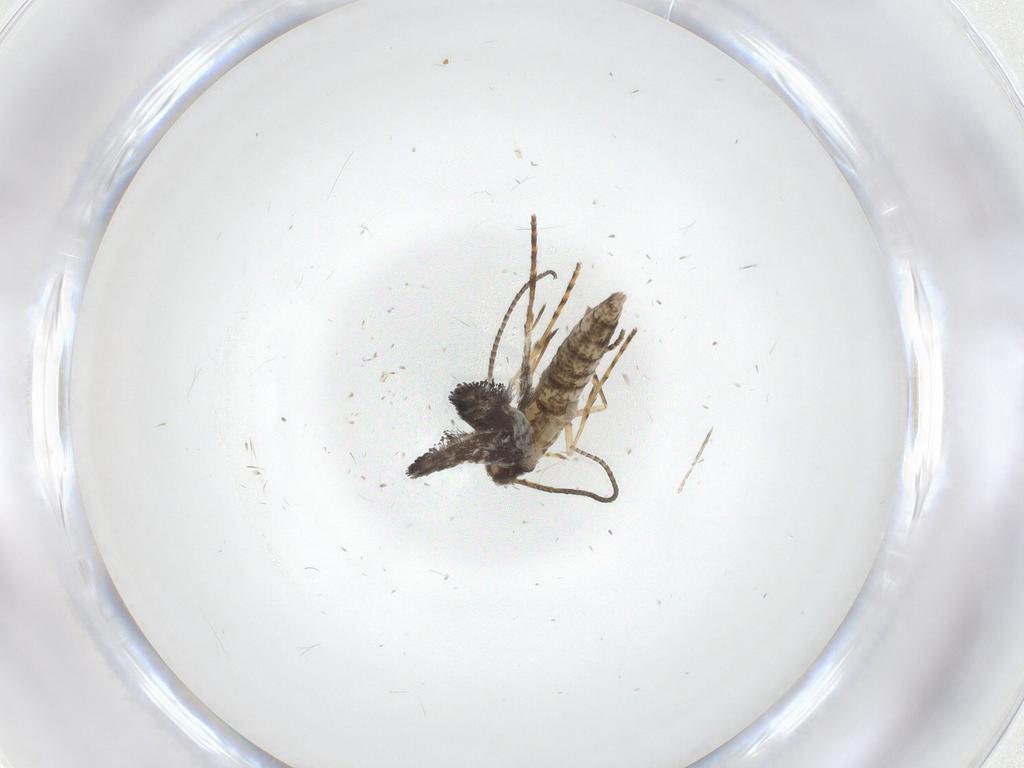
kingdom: Animalia
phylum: Arthropoda
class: Insecta
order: Lepidoptera
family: Gracillariidae
